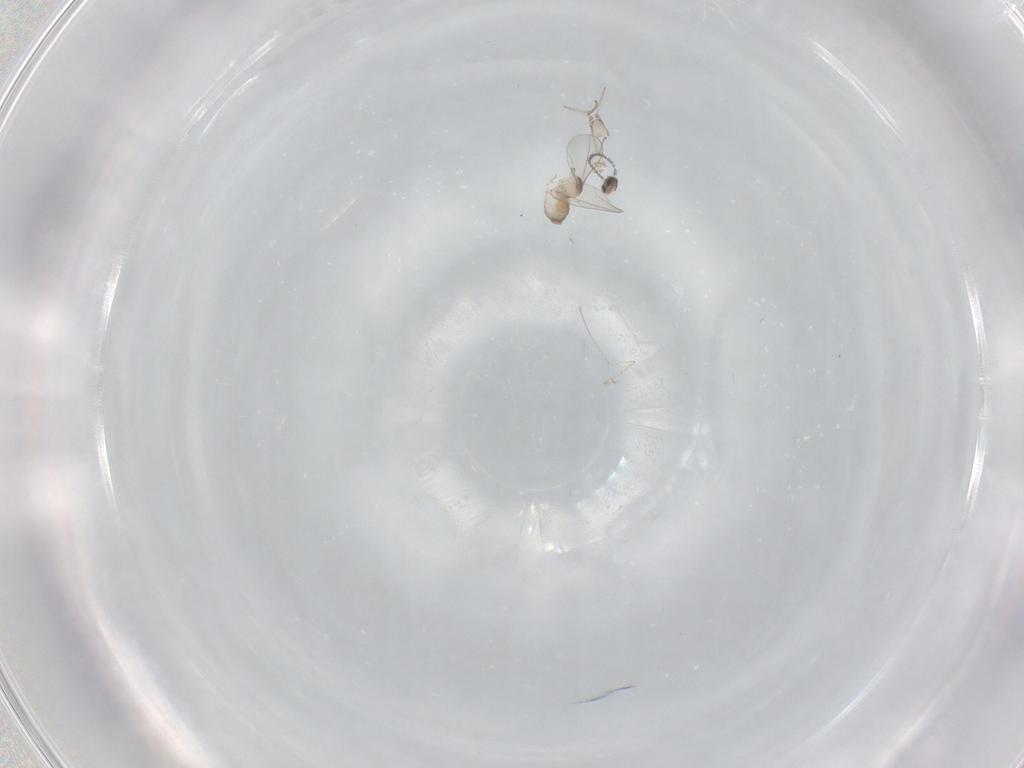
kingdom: Animalia
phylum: Arthropoda
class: Insecta
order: Diptera
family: Cecidomyiidae
